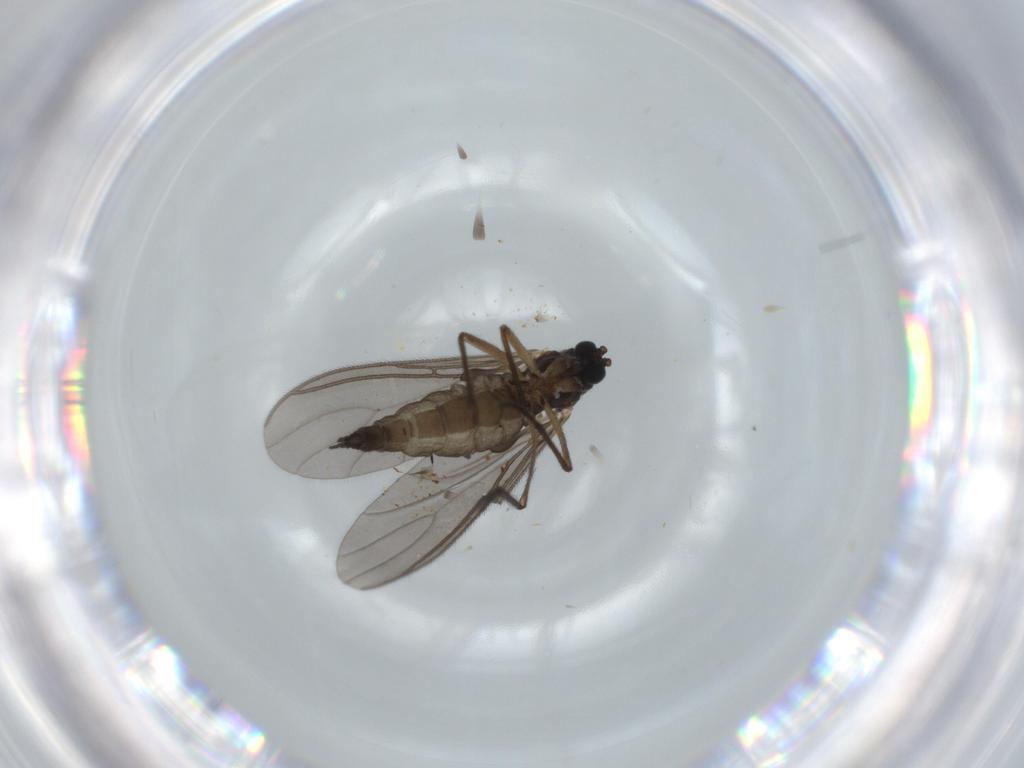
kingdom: Animalia
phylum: Arthropoda
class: Insecta
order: Diptera
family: Sciaridae
